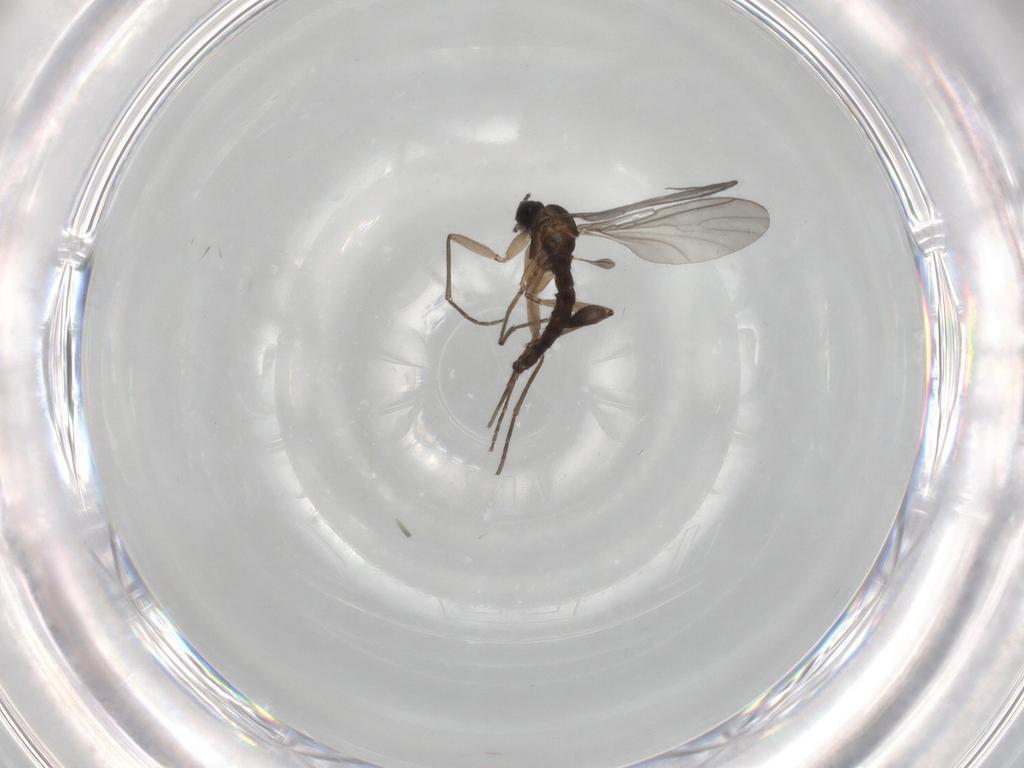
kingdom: Animalia
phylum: Arthropoda
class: Insecta
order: Diptera
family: Sciaridae
